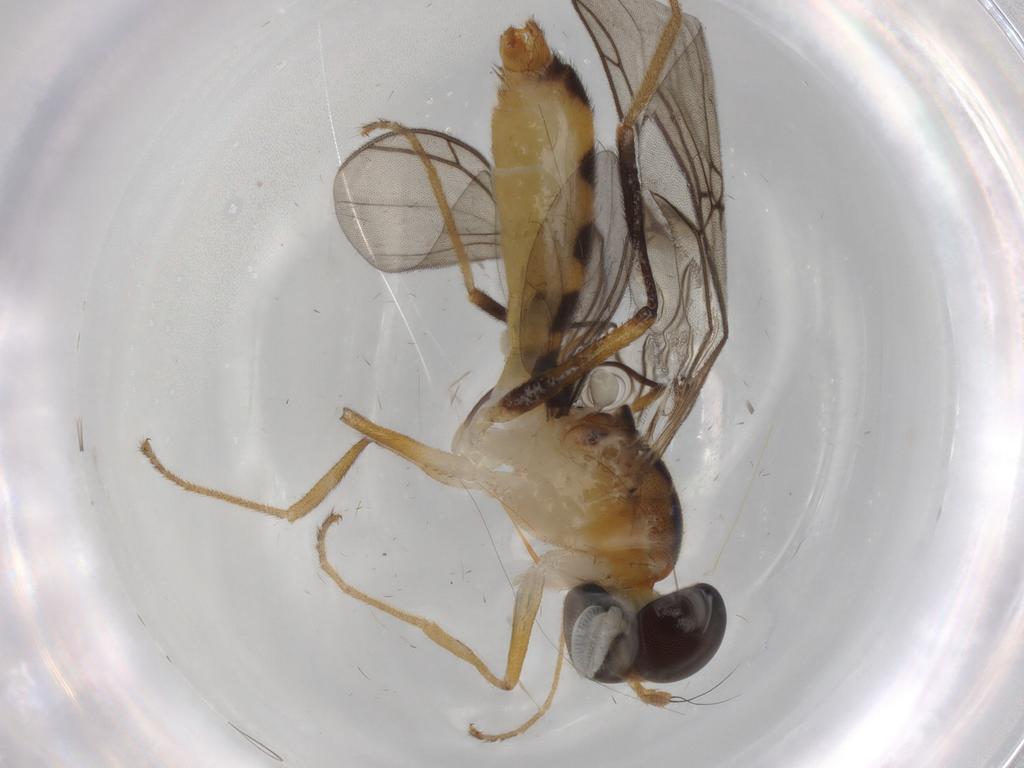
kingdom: Animalia
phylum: Arthropoda
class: Insecta
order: Diptera
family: Phoridae
